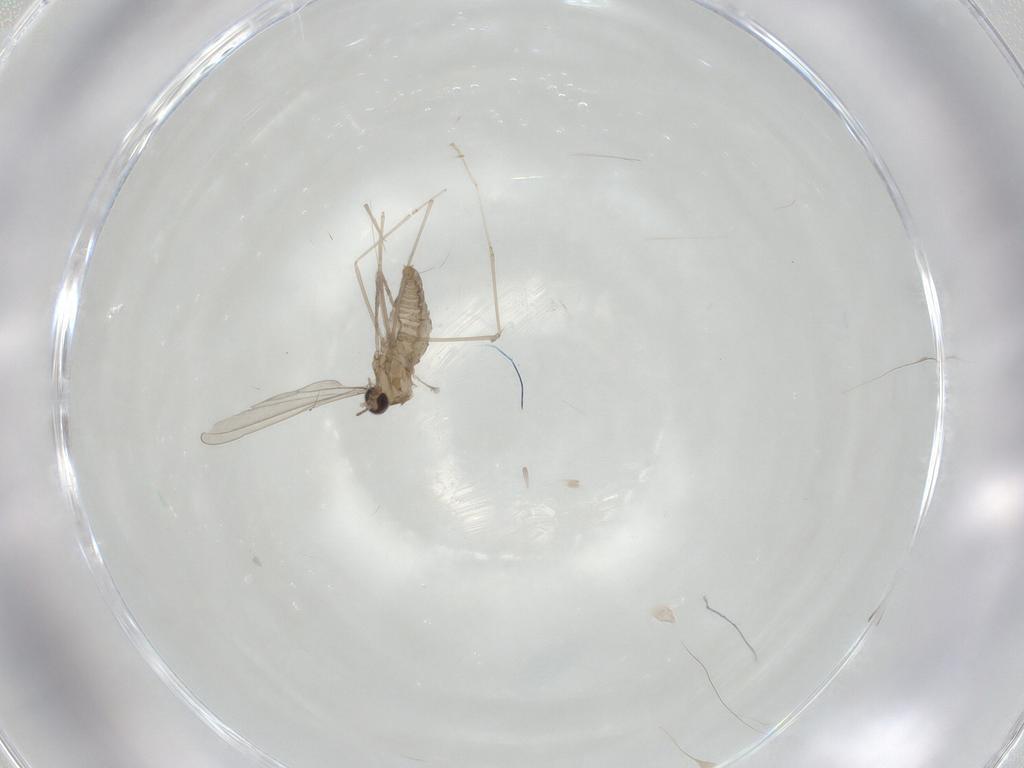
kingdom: Animalia
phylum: Arthropoda
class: Insecta
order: Diptera
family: Cecidomyiidae
